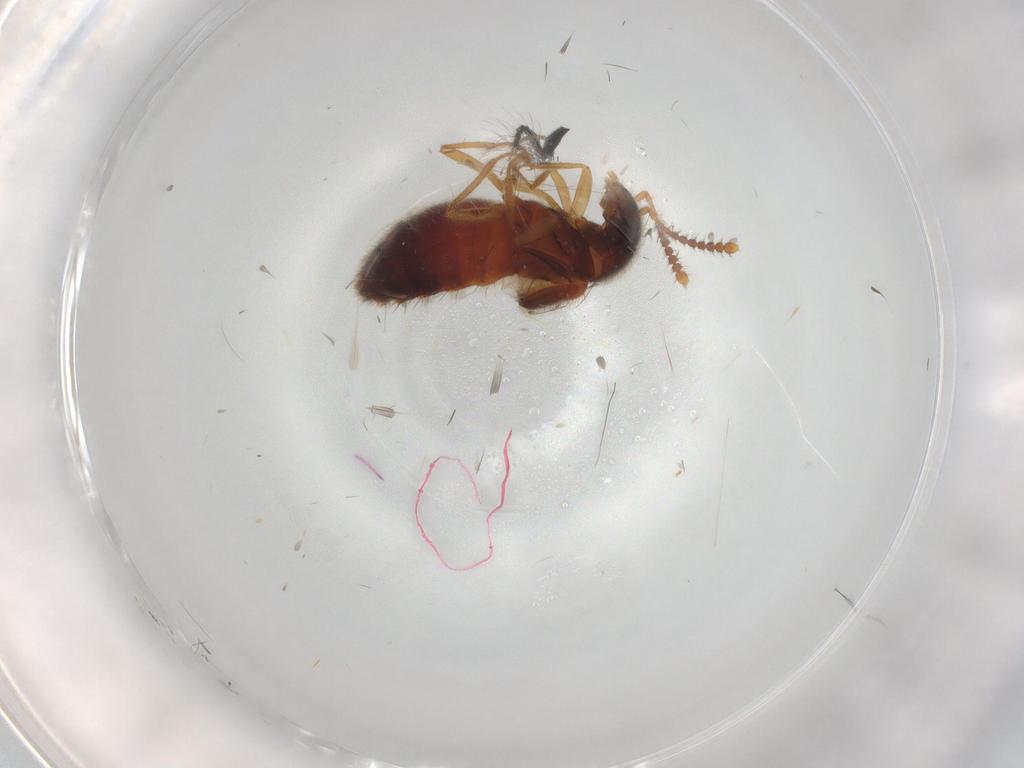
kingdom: Animalia
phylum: Arthropoda
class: Insecta
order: Coleoptera
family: Staphylinidae
